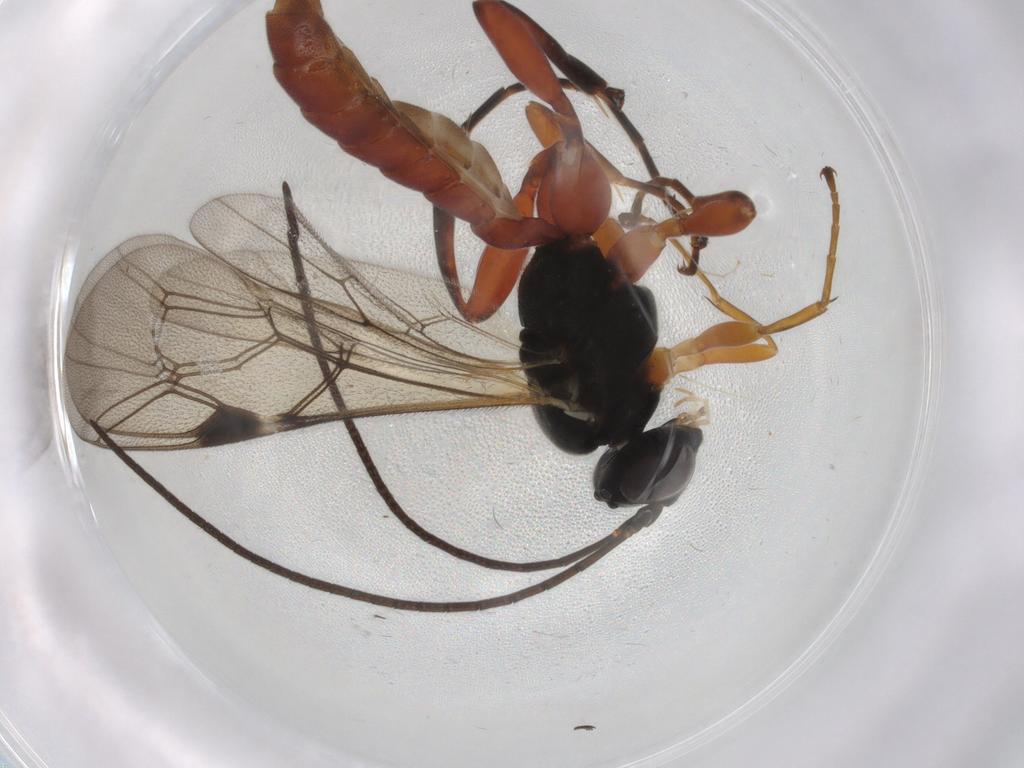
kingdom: Animalia
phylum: Arthropoda
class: Insecta
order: Hymenoptera
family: Ichneumonidae
